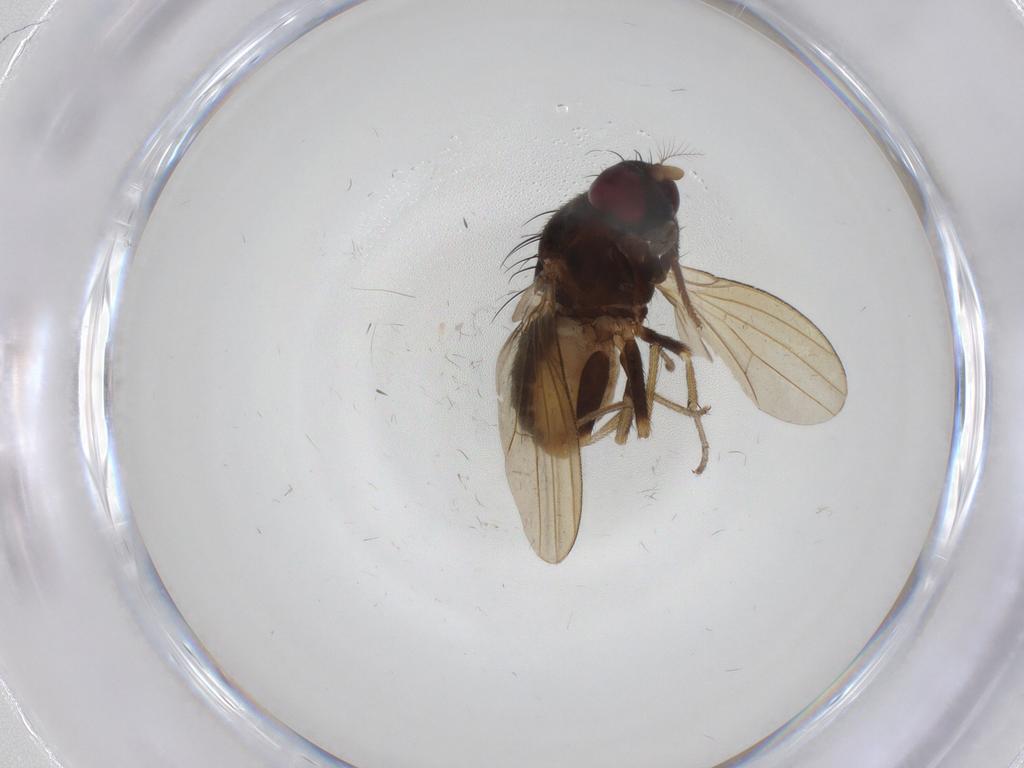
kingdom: Animalia
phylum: Arthropoda
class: Insecta
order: Diptera
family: Lauxaniidae
